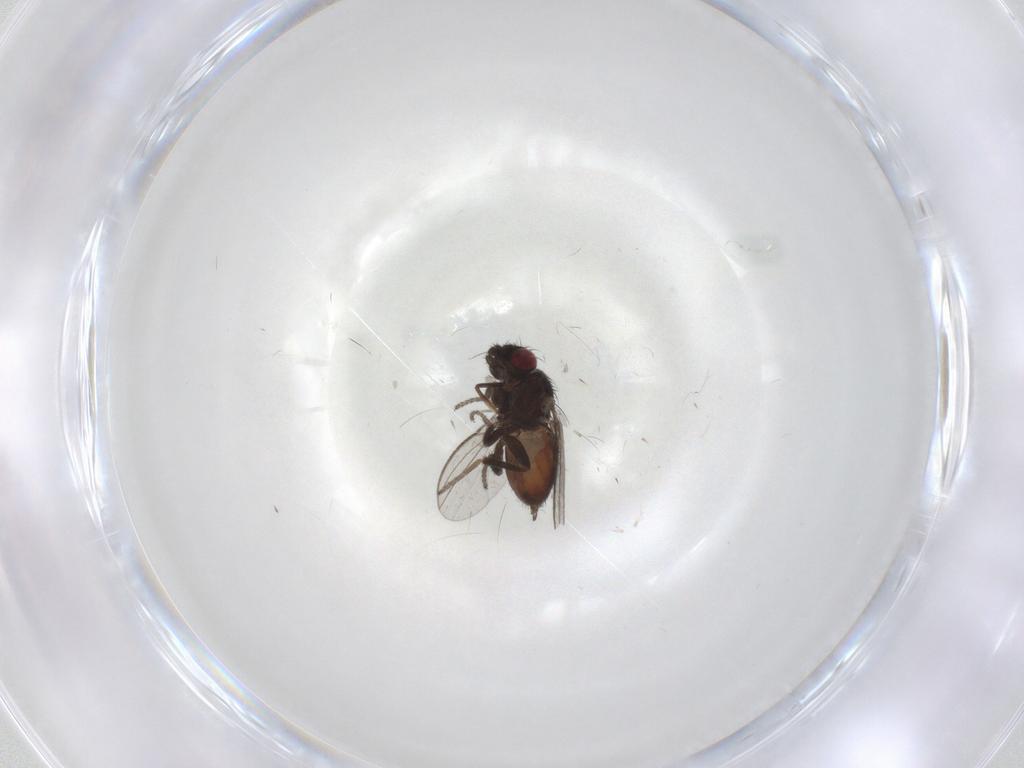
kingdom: Animalia
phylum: Arthropoda
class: Insecta
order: Diptera
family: Milichiidae
